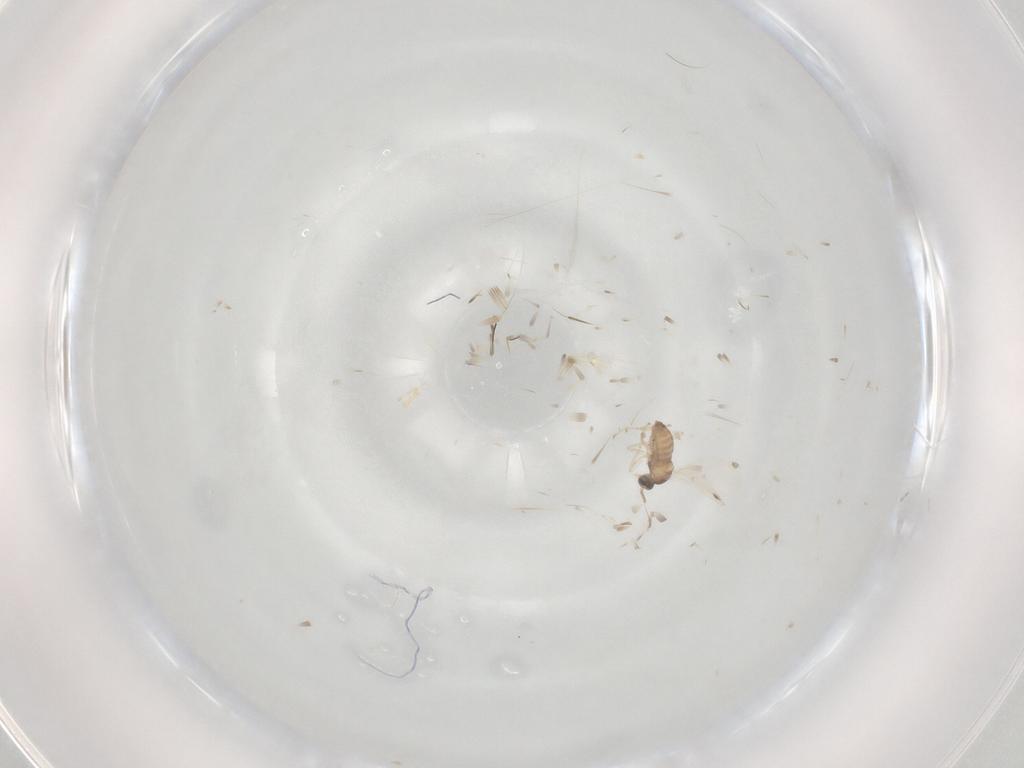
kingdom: Animalia
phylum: Arthropoda
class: Insecta
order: Diptera
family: Cecidomyiidae
